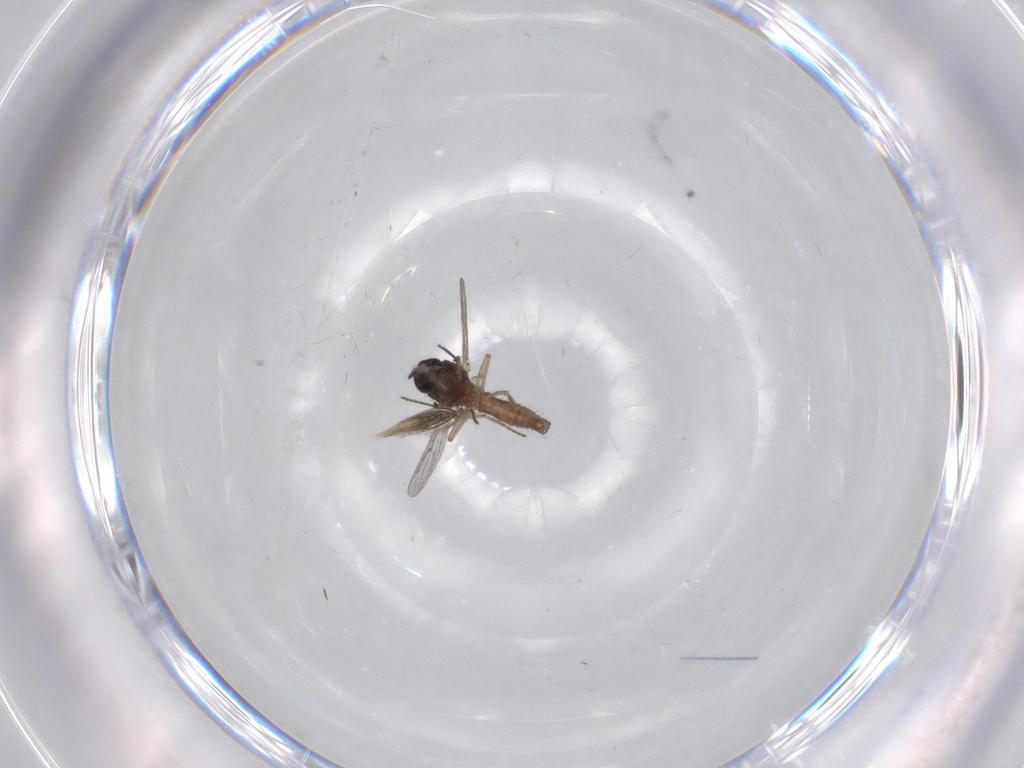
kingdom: Animalia
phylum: Arthropoda
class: Insecta
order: Diptera
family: Ceratopogonidae
